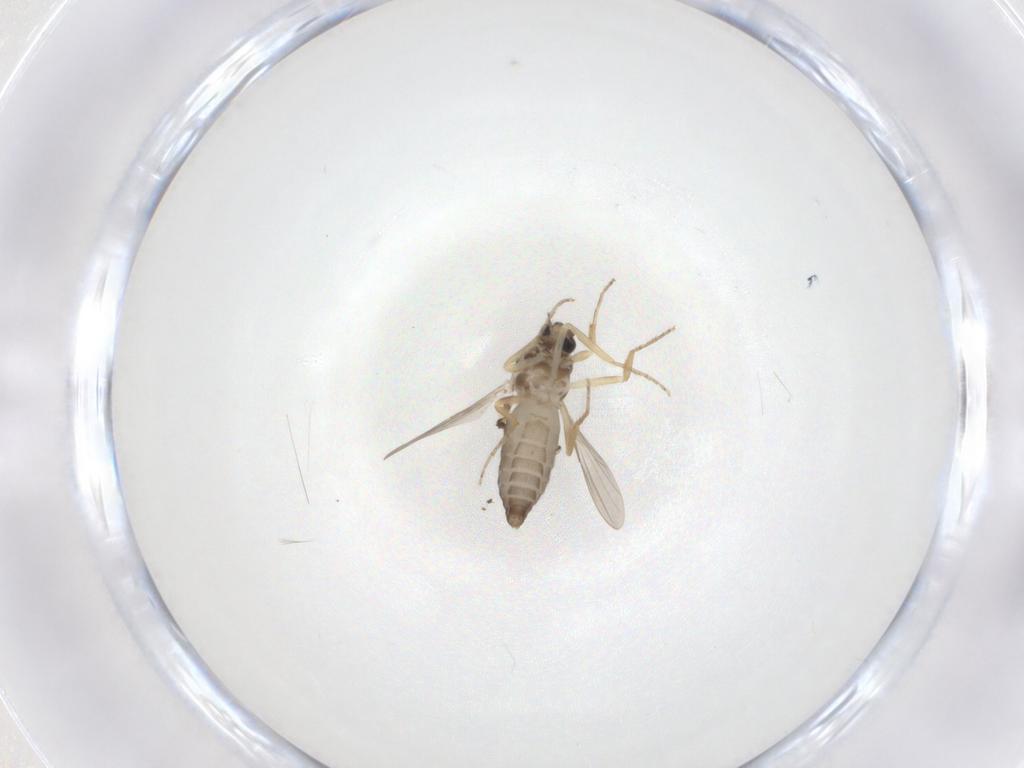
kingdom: Animalia
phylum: Arthropoda
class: Insecta
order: Diptera
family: Ceratopogonidae
